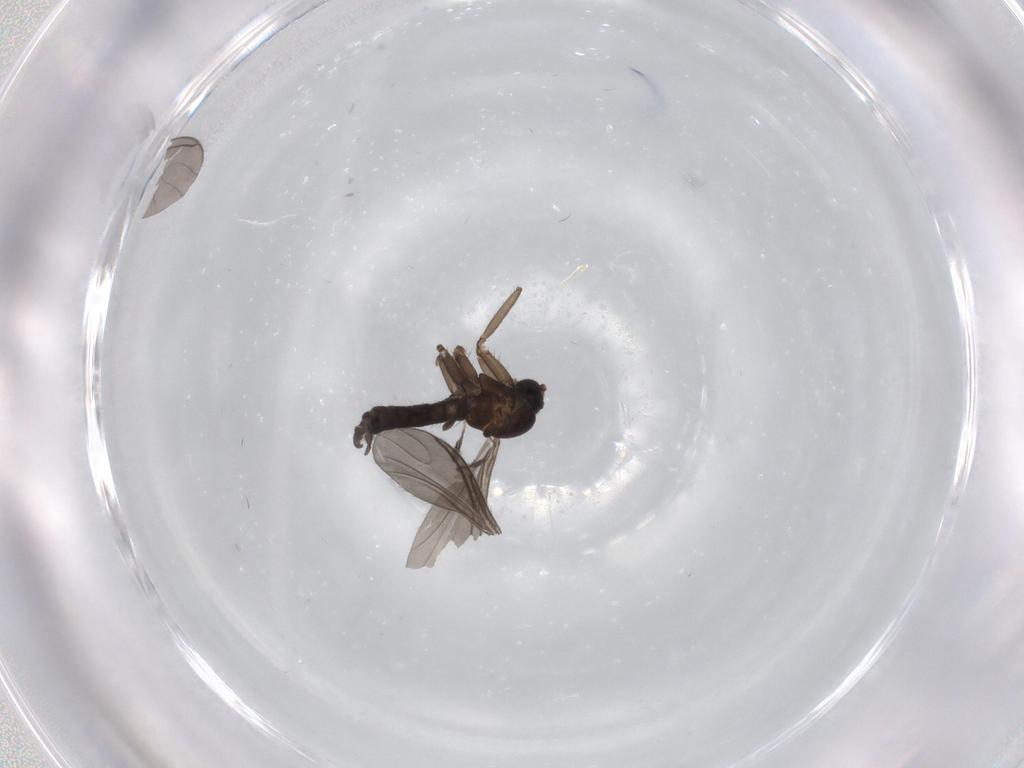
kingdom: Animalia
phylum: Arthropoda
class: Insecta
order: Diptera
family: Sciaridae
